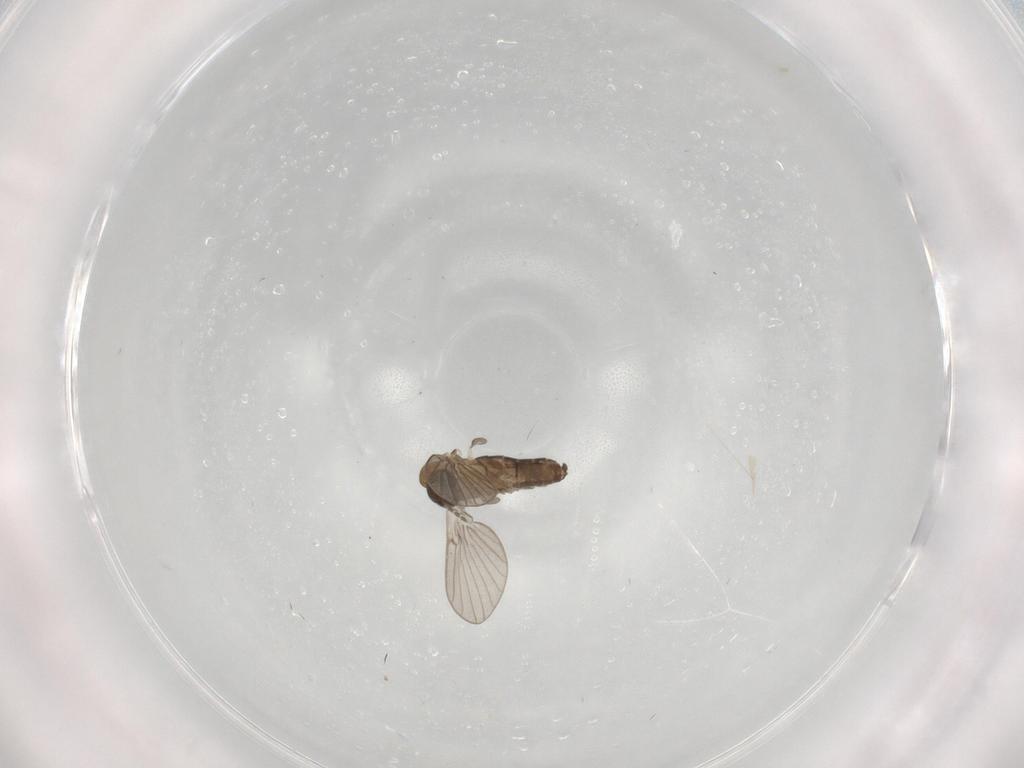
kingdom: Animalia
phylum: Arthropoda
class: Insecta
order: Diptera
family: Psychodidae
